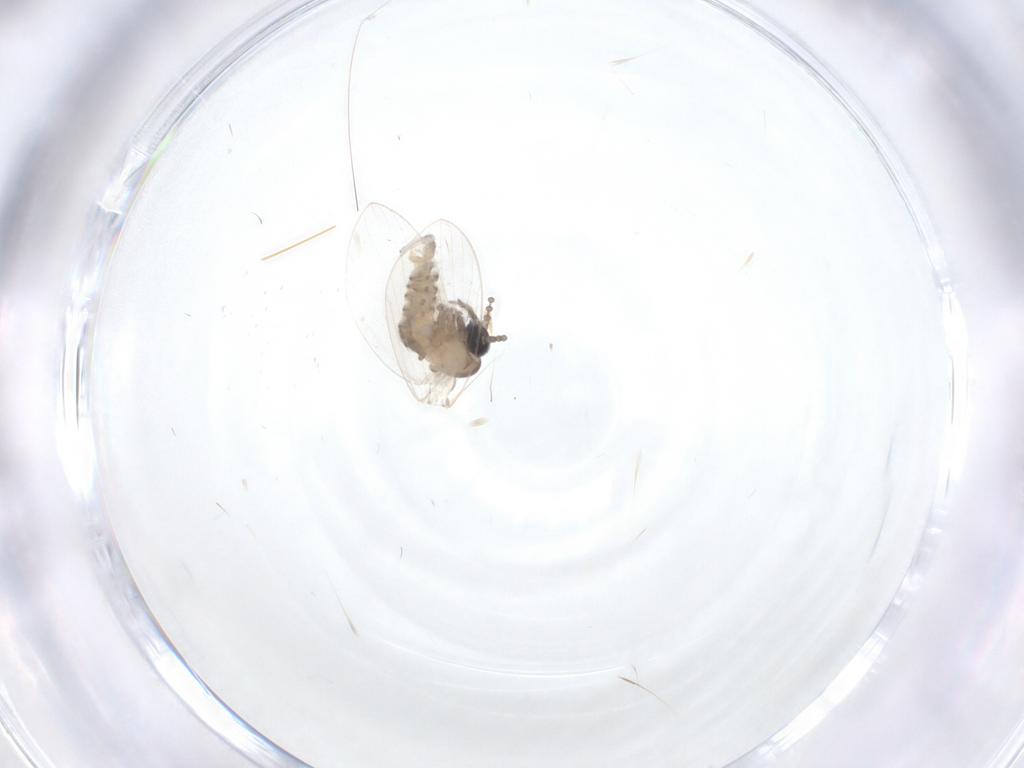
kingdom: Animalia
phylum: Arthropoda
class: Insecta
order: Diptera
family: Psychodidae
